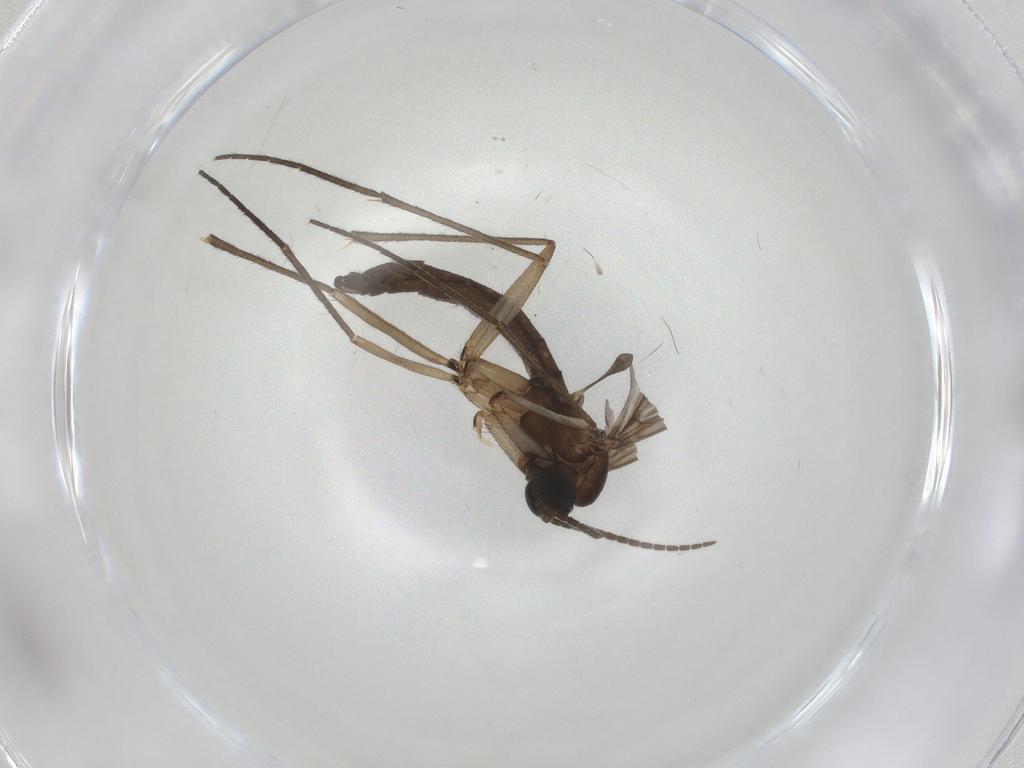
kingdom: Animalia
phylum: Arthropoda
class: Insecta
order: Diptera
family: Sciaridae
